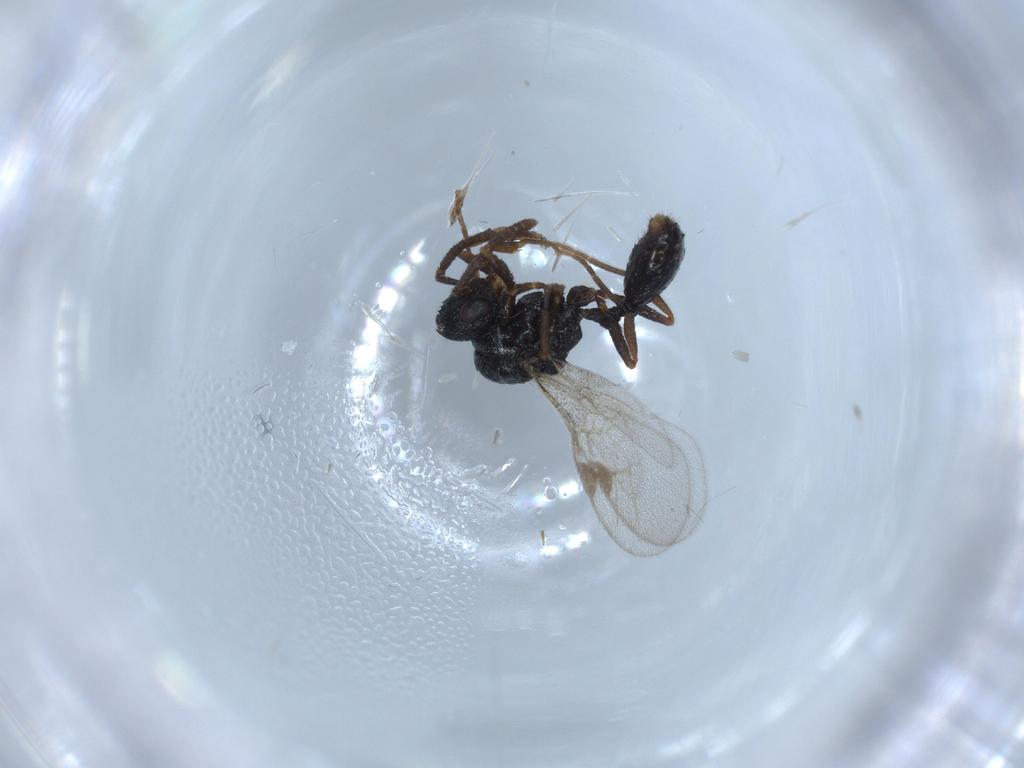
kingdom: Animalia
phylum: Arthropoda
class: Insecta
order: Hymenoptera
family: Formicidae
